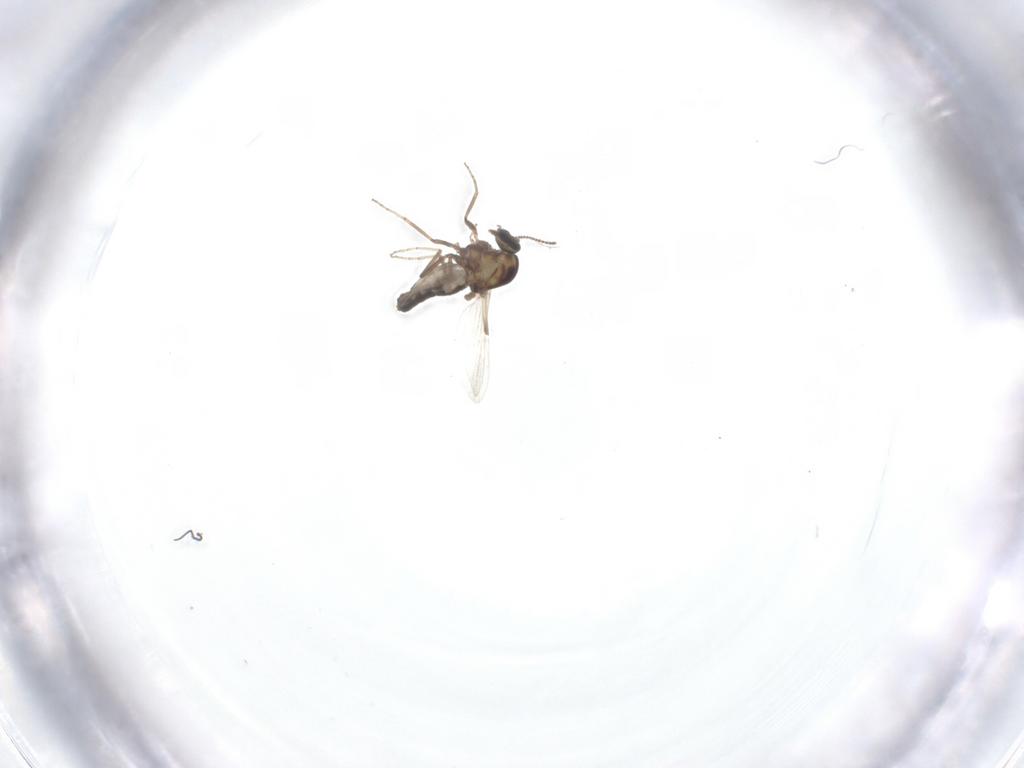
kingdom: Animalia
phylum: Arthropoda
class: Insecta
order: Diptera
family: Ceratopogonidae
